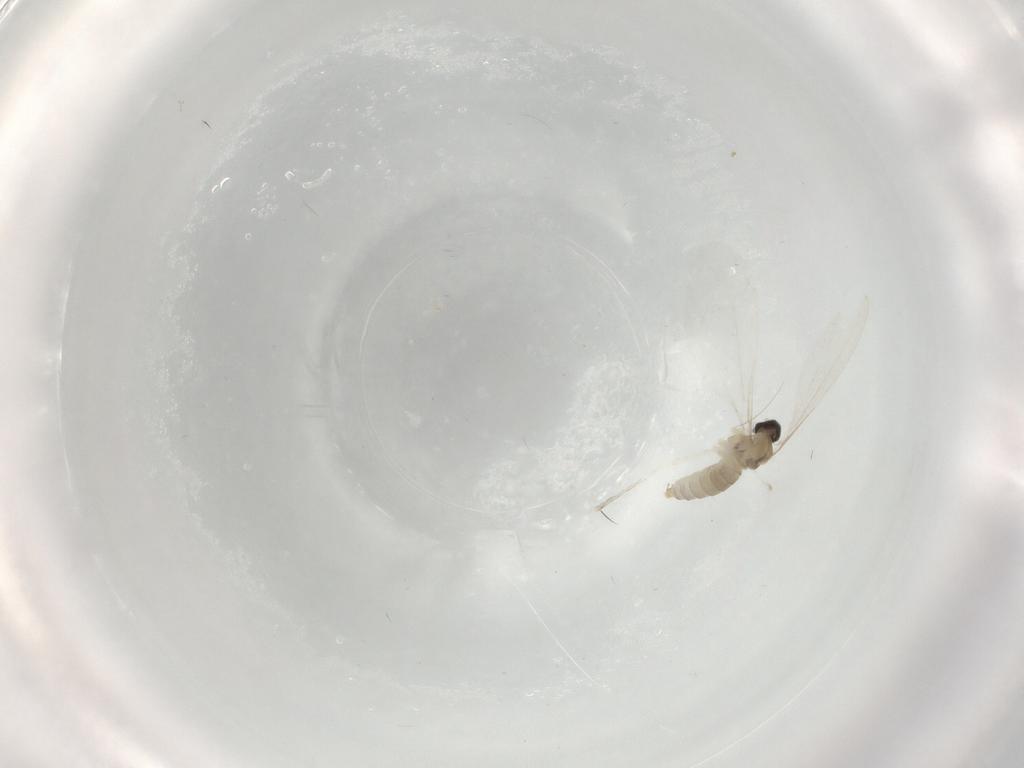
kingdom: Animalia
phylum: Arthropoda
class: Insecta
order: Diptera
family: Cecidomyiidae
